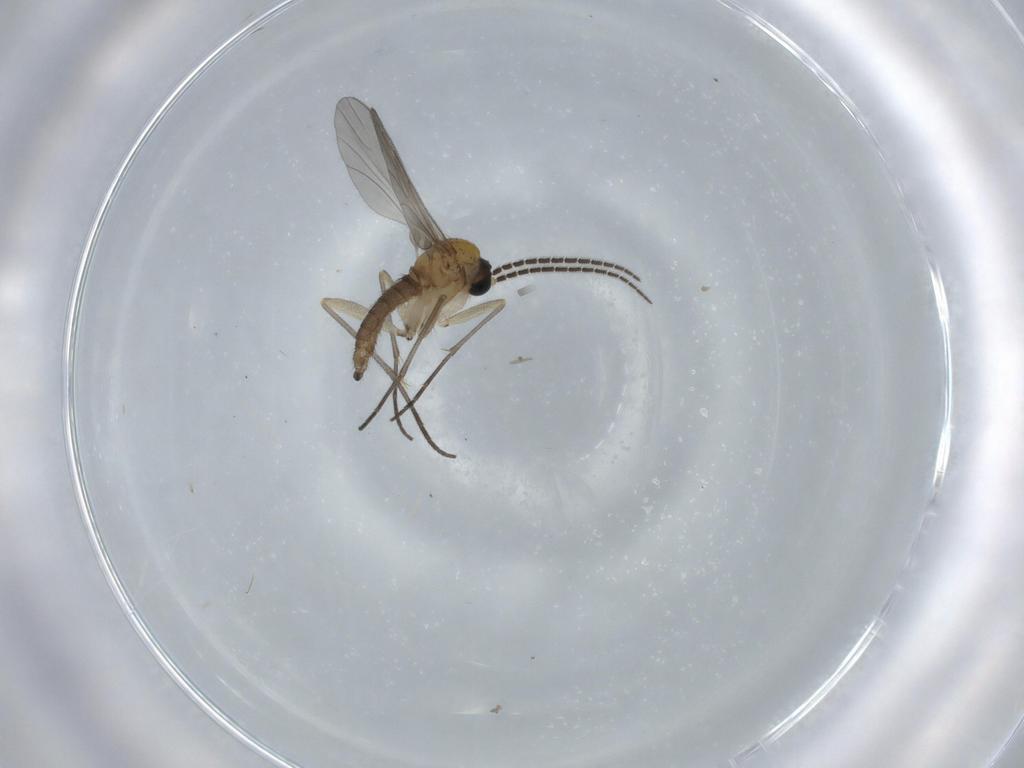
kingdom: Animalia
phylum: Arthropoda
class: Insecta
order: Diptera
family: Sciaridae
